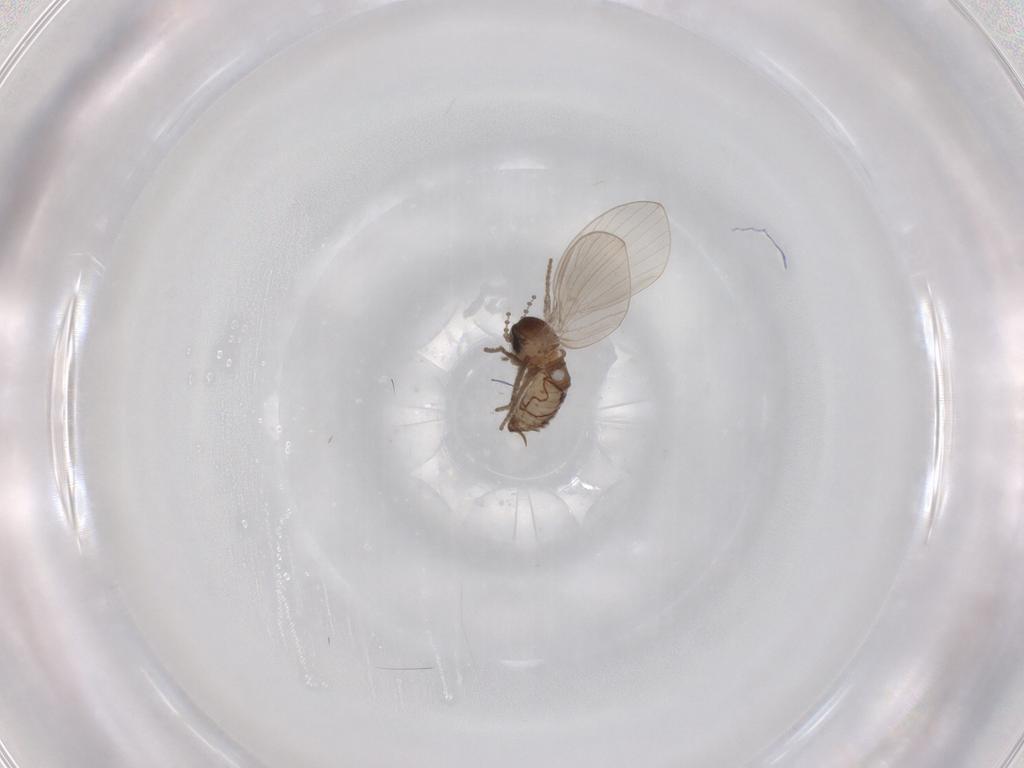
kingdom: Animalia
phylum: Arthropoda
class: Insecta
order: Diptera
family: Psychodidae
